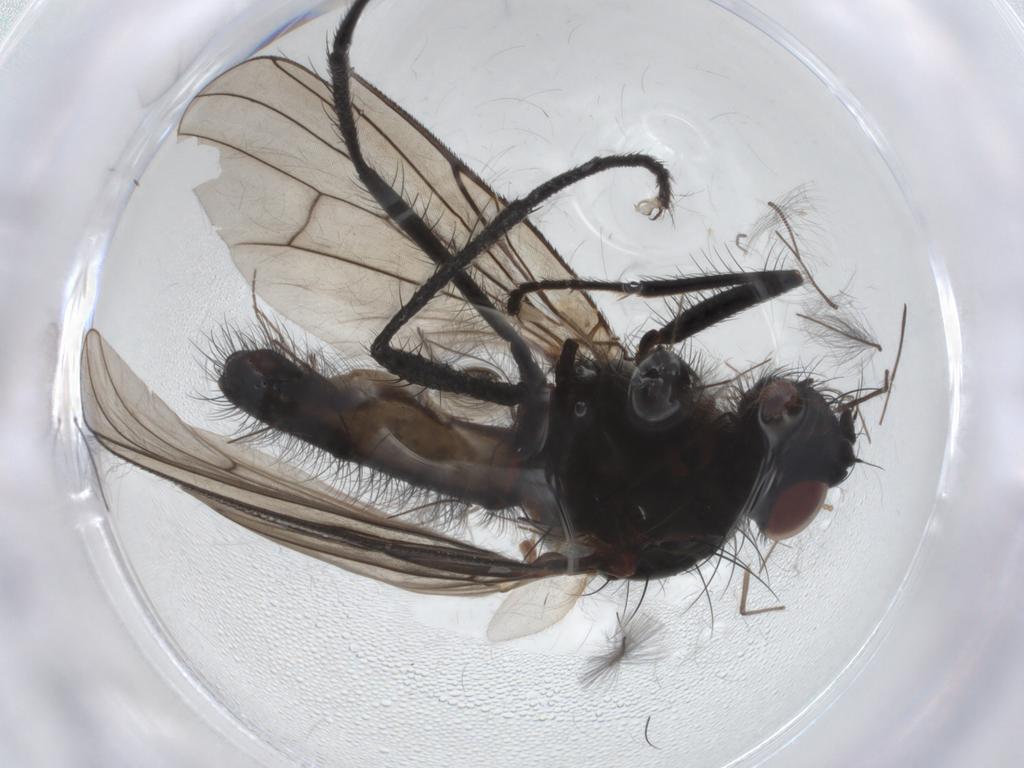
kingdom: Animalia
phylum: Arthropoda
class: Insecta
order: Diptera
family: Anthomyiidae
